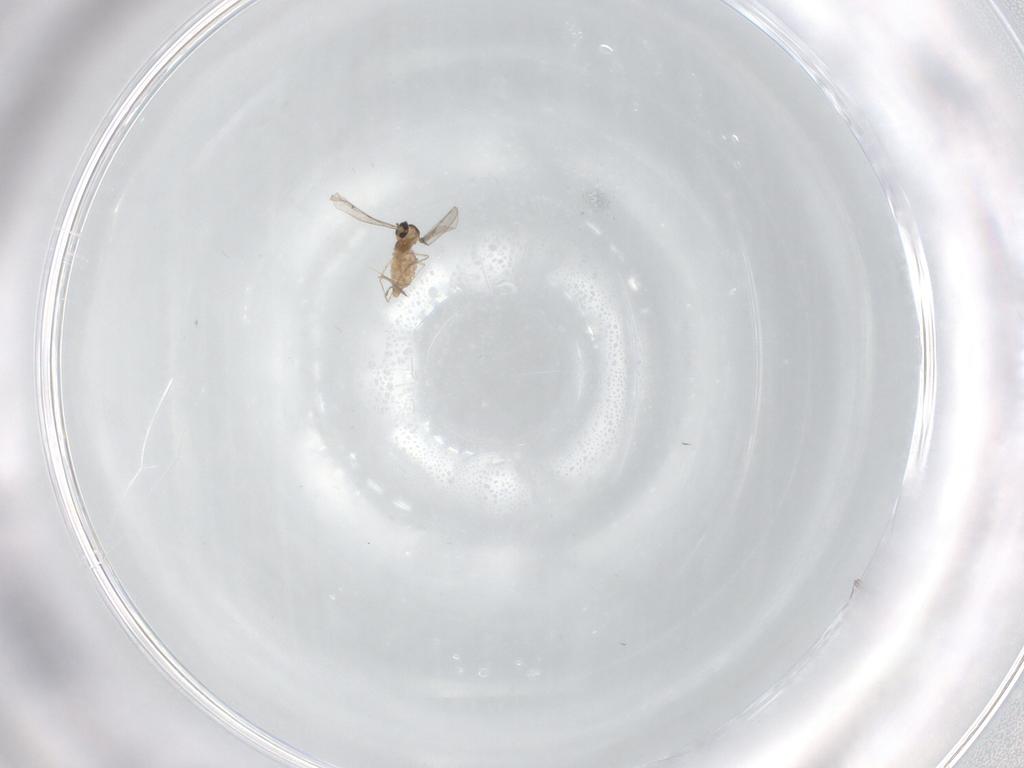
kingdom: Animalia
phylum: Arthropoda
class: Insecta
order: Diptera
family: Cecidomyiidae
